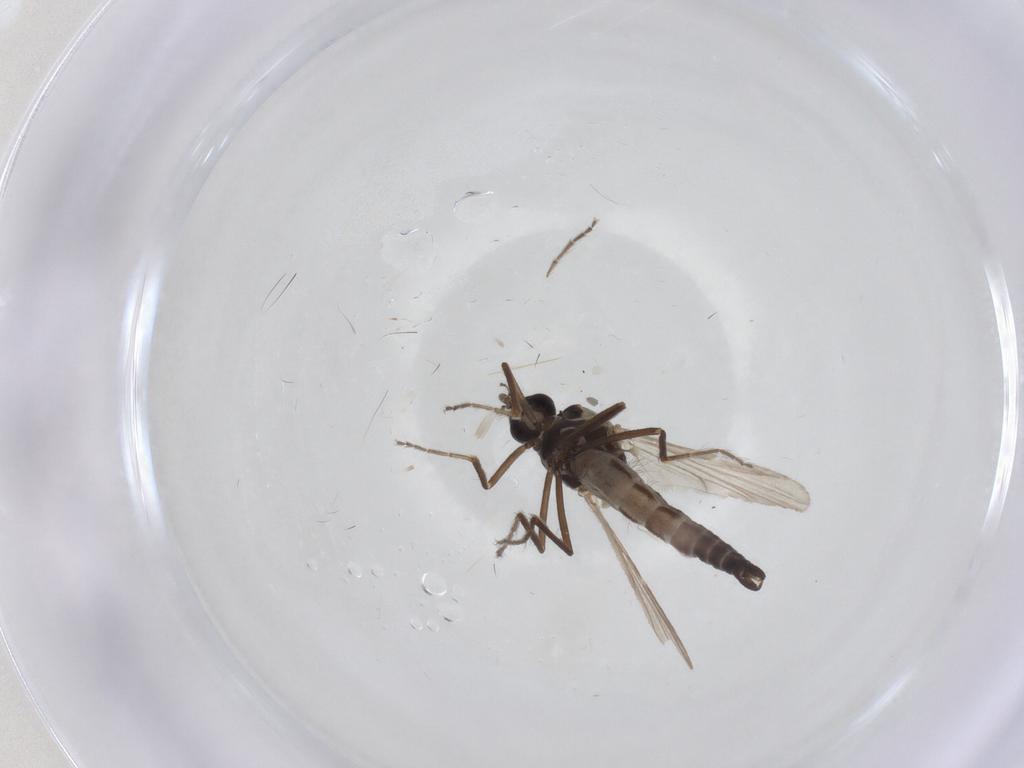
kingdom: Animalia
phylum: Arthropoda
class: Insecta
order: Diptera
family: Ceratopogonidae
